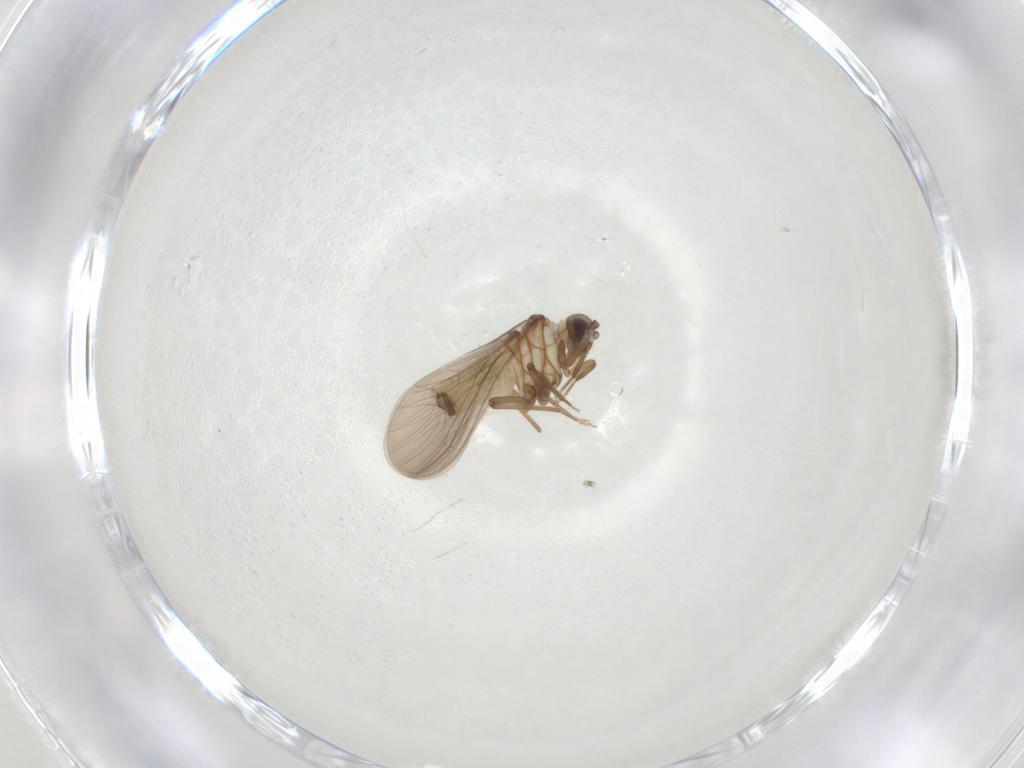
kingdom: Animalia
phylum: Arthropoda
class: Insecta
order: Neuroptera
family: Coniopterygidae
